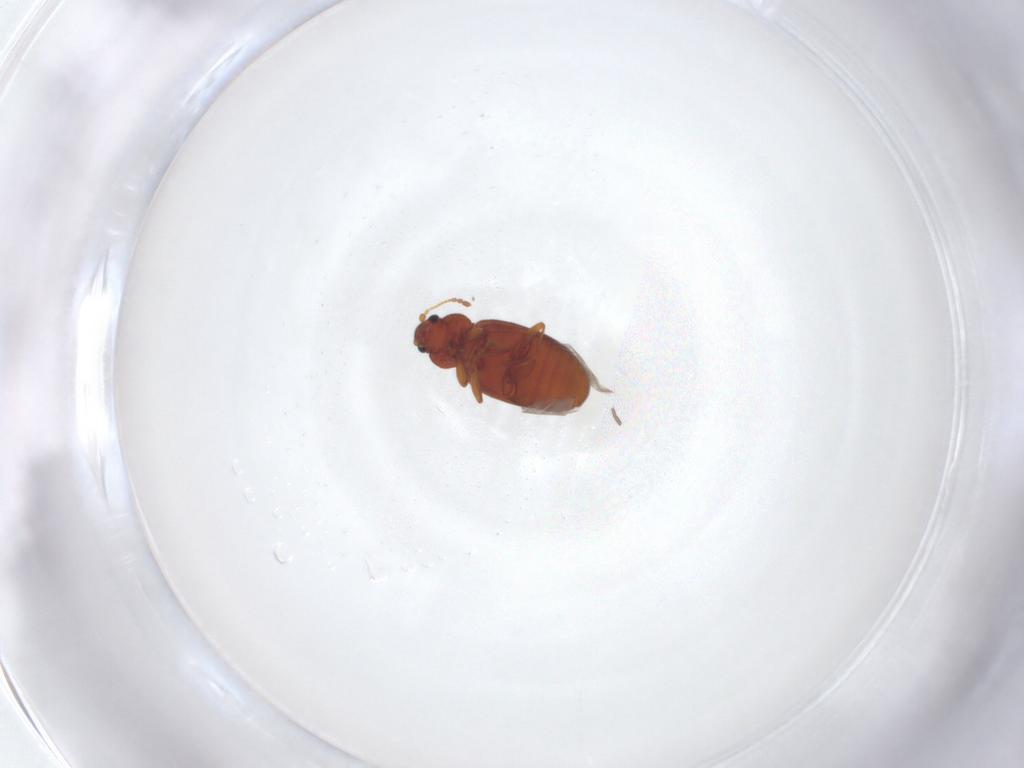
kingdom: Animalia
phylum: Arthropoda
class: Insecta
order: Coleoptera
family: Latridiidae
